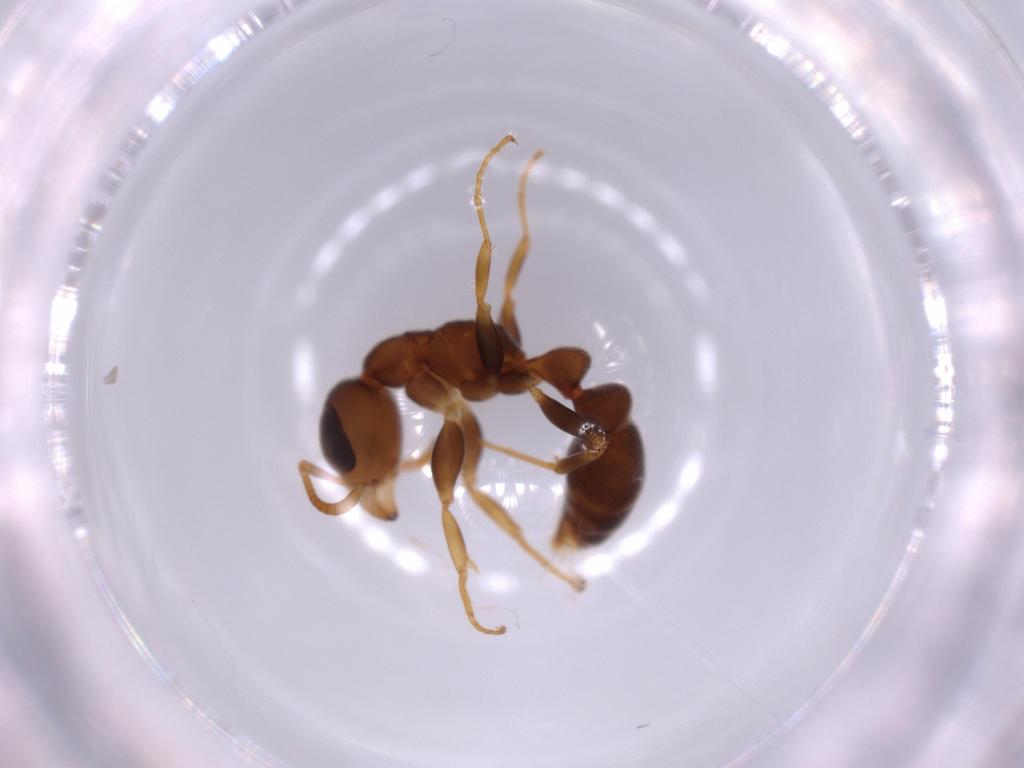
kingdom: Animalia
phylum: Arthropoda
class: Insecta
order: Hymenoptera
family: Formicidae
